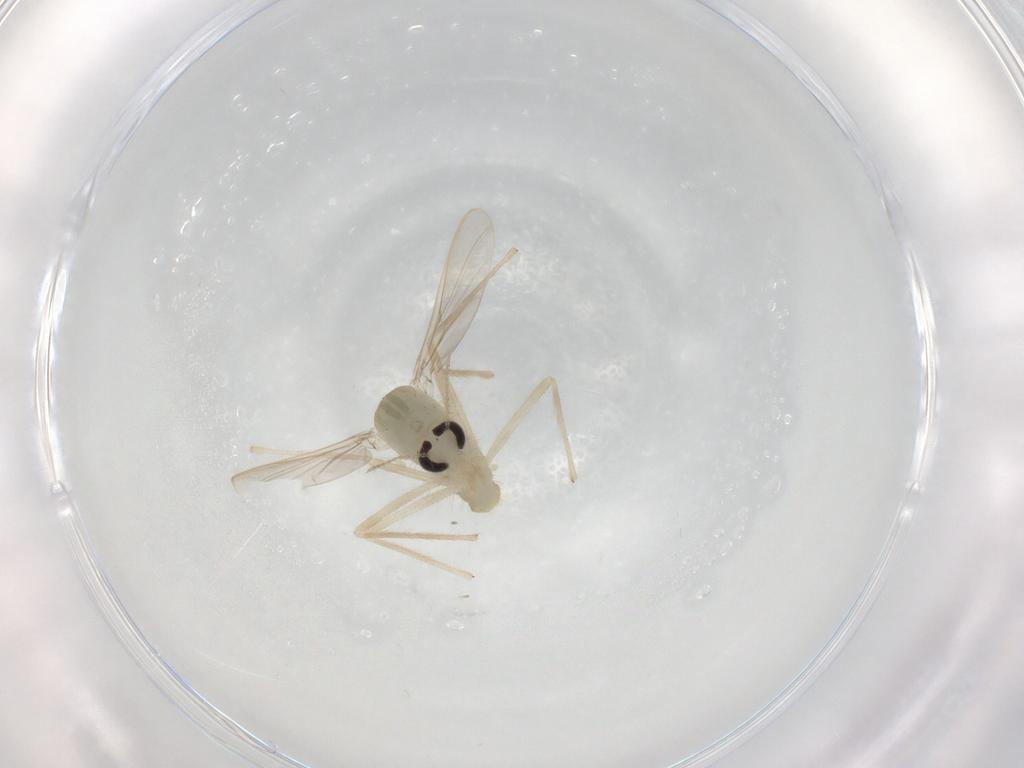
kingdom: Animalia
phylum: Arthropoda
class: Insecta
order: Diptera
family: Chironomidae
